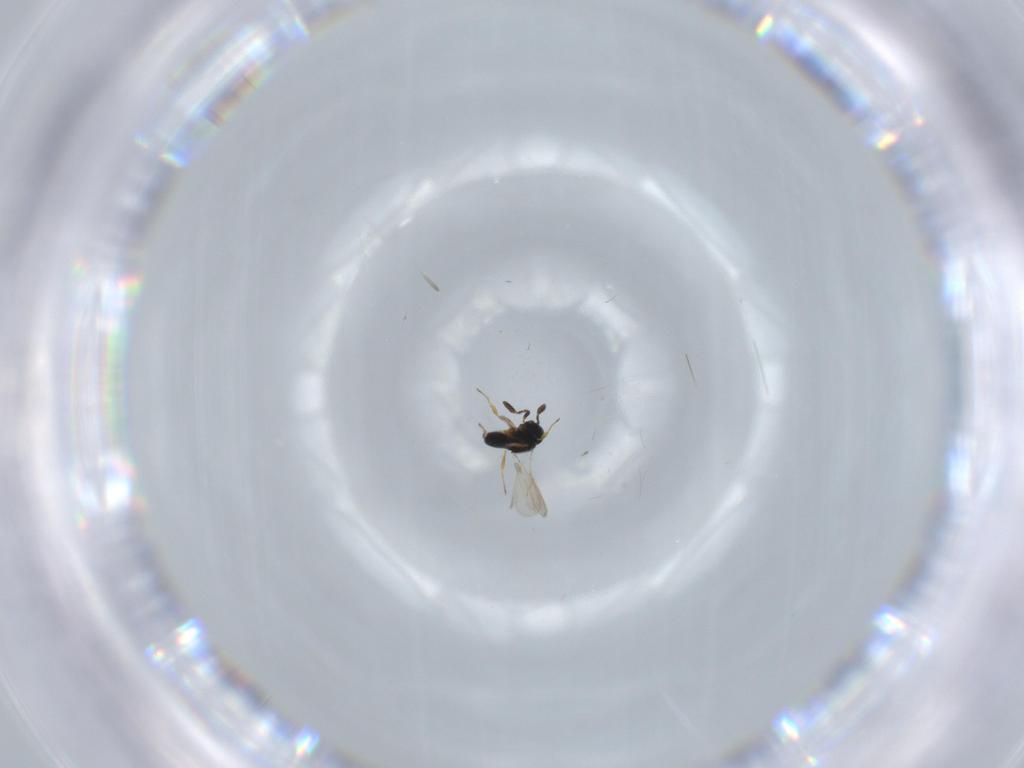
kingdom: Animalia
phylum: Arthropoda
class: Insecta
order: Hymenoptera
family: Scelionidae
